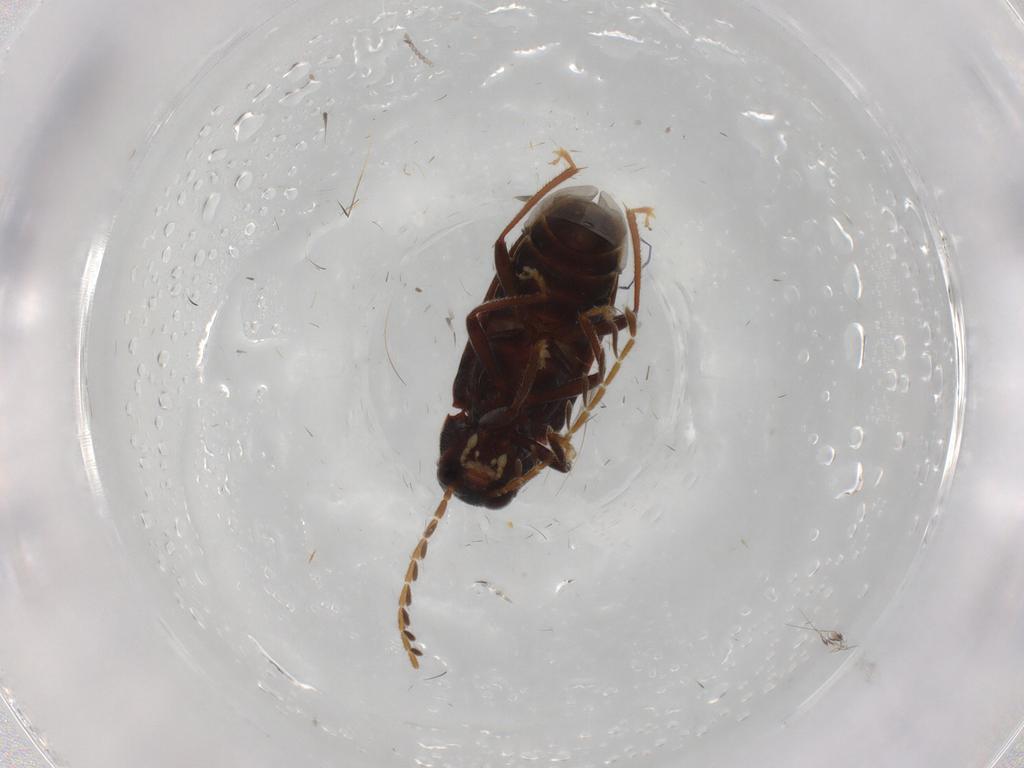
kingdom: Animalia
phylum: Arthropoda
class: Insecta
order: Coleoptera
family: Ptilodactylidae
